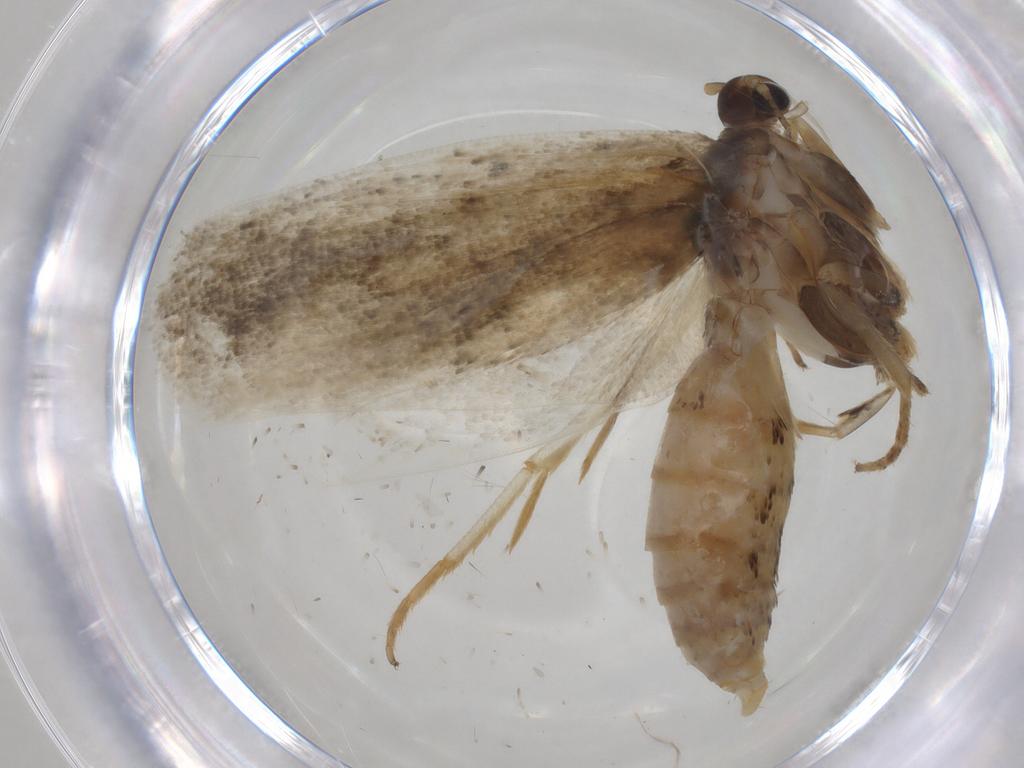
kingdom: Animalia
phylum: Arthropoda
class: Insecta
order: Lepidoptera
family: Depressariidae
